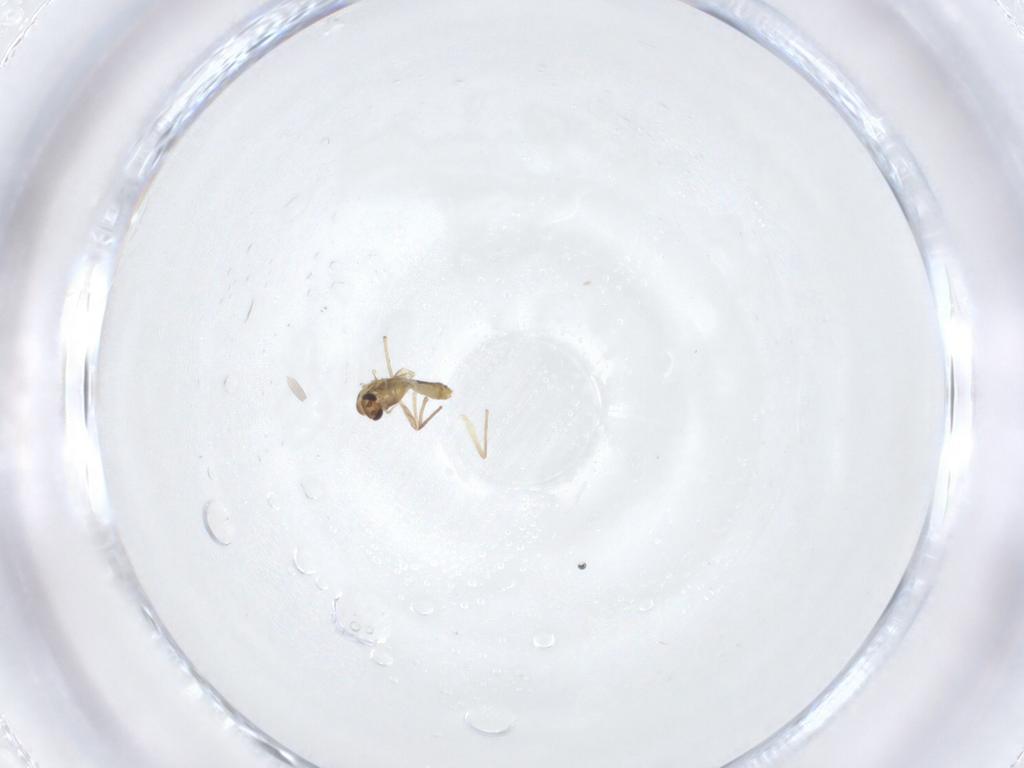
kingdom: Animalia
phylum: Arthropoda
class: Insecta
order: Diptera
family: Chironomidae
